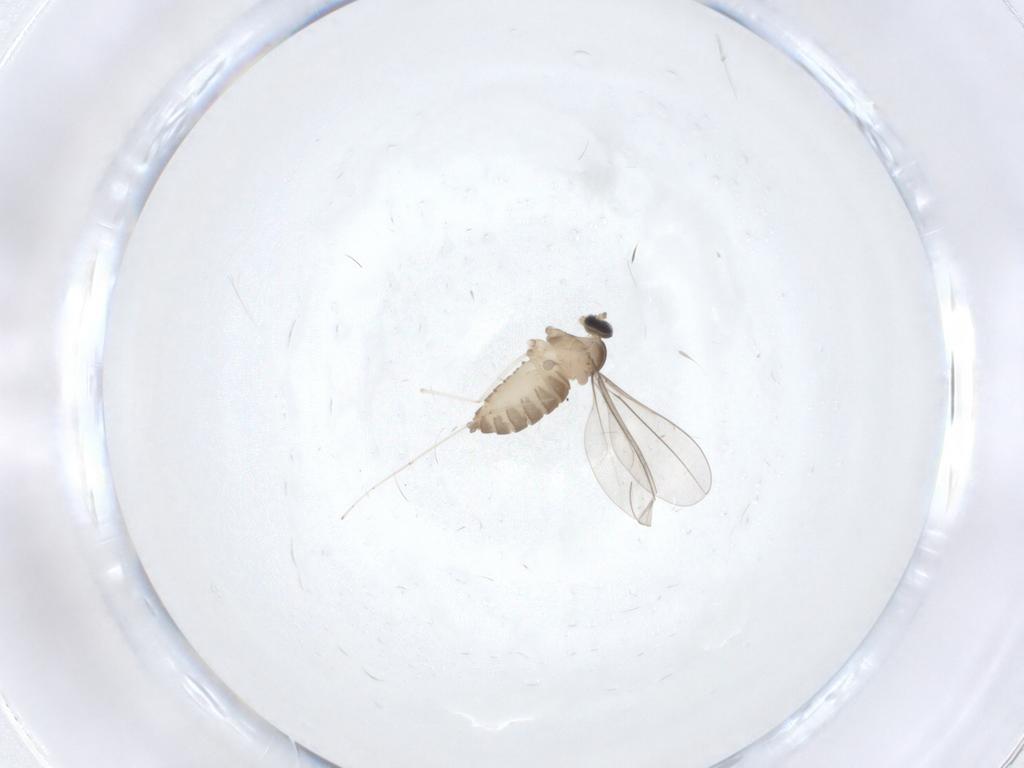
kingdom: Animalia
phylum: Arthropoda
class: Insecta
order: Diptera
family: Cecidomyiidae
